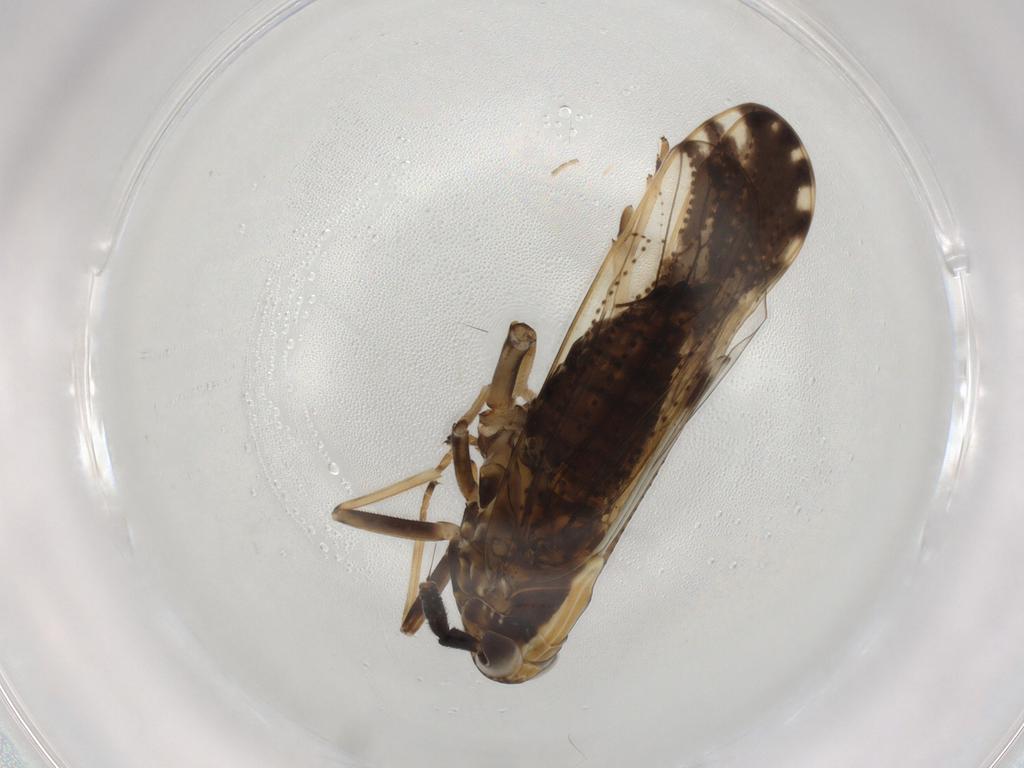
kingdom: Animalia
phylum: Arthropoda
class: Insecta
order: Hemiptera
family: Delphacidae
